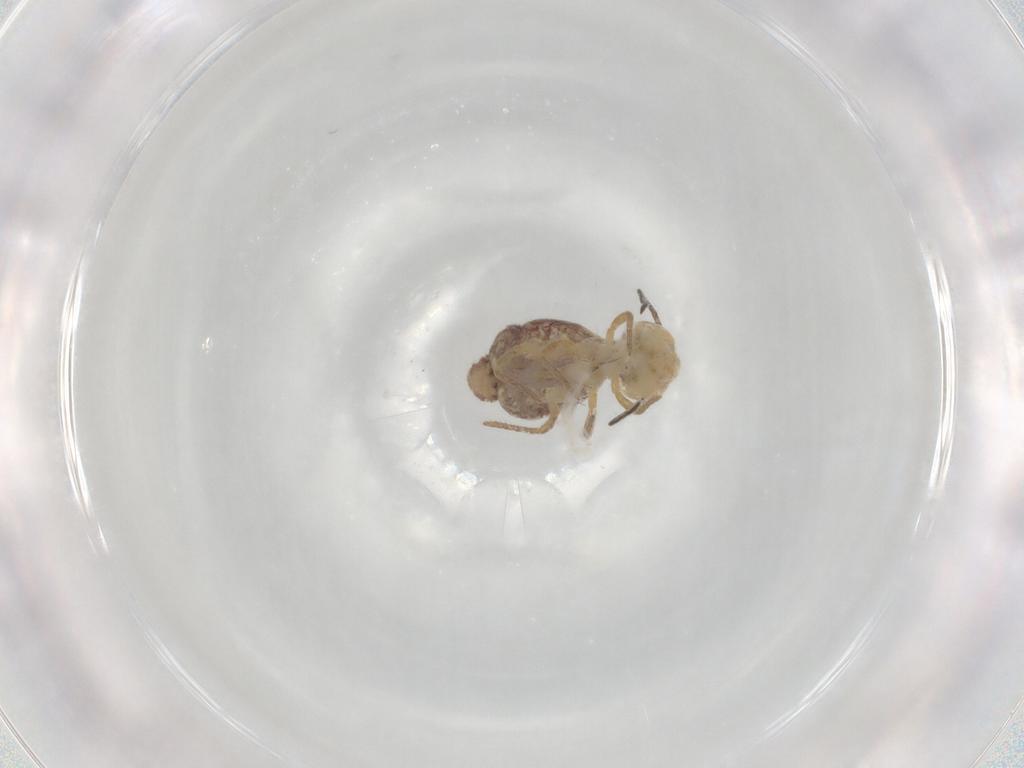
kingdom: Animalia
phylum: Arthropoda
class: Collembola
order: Symphypleona
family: Sminthuridae
